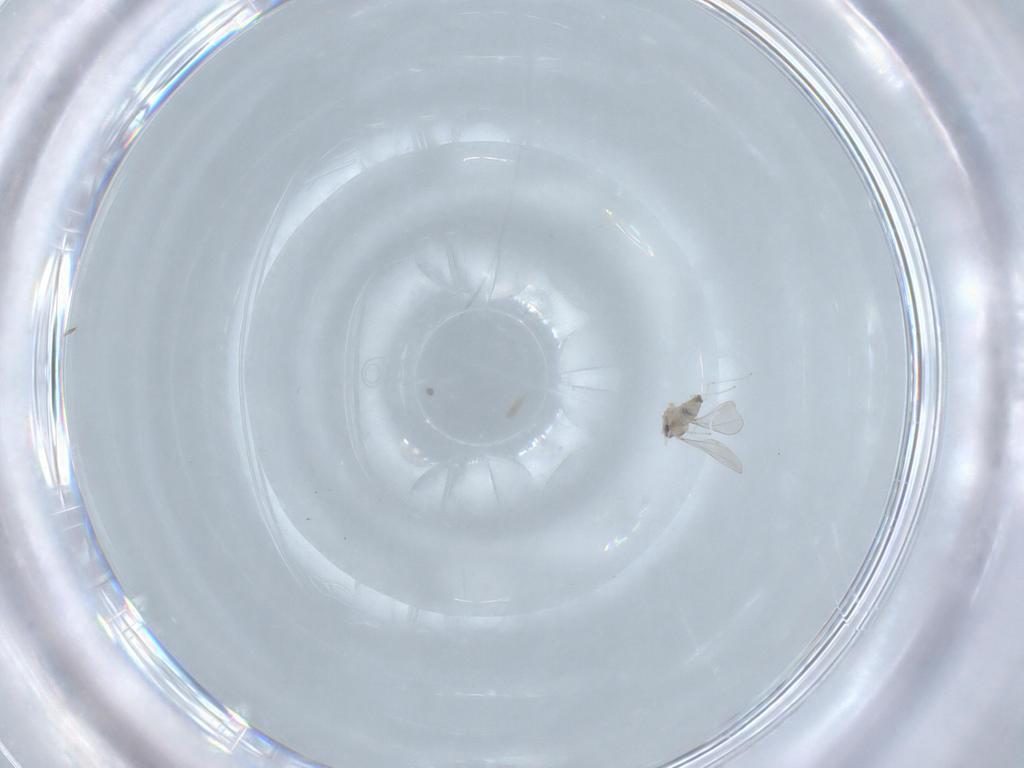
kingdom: Animalia
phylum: Arthropoda
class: Insecta
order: Diptera
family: Cecidomyiidae
